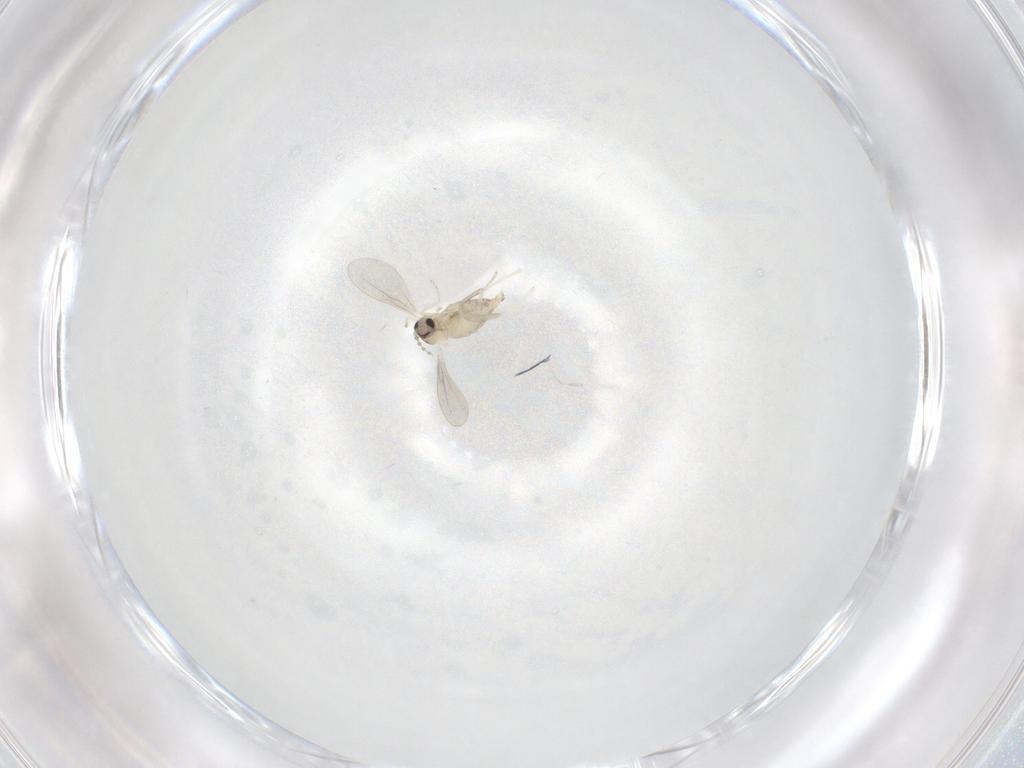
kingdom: Animalia
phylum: Arthropoda
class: Insecta
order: Diptera
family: Cecidomyiidae
